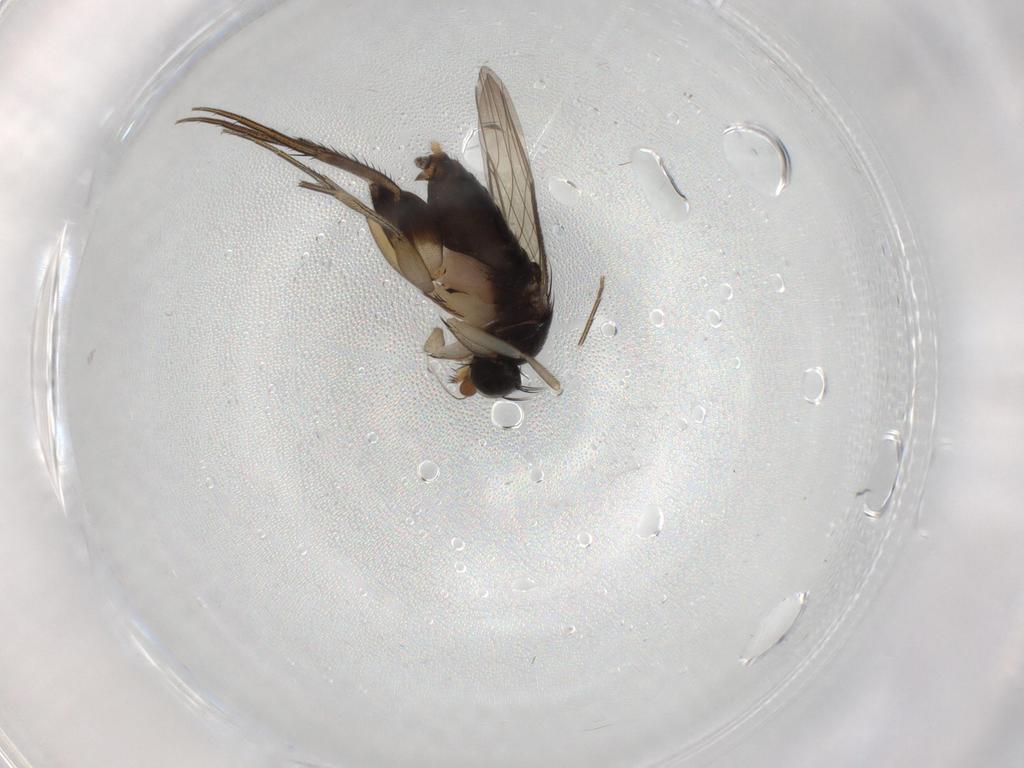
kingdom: Animalia
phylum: Arthropoda
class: Insecta
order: Diptera
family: Phoridae
